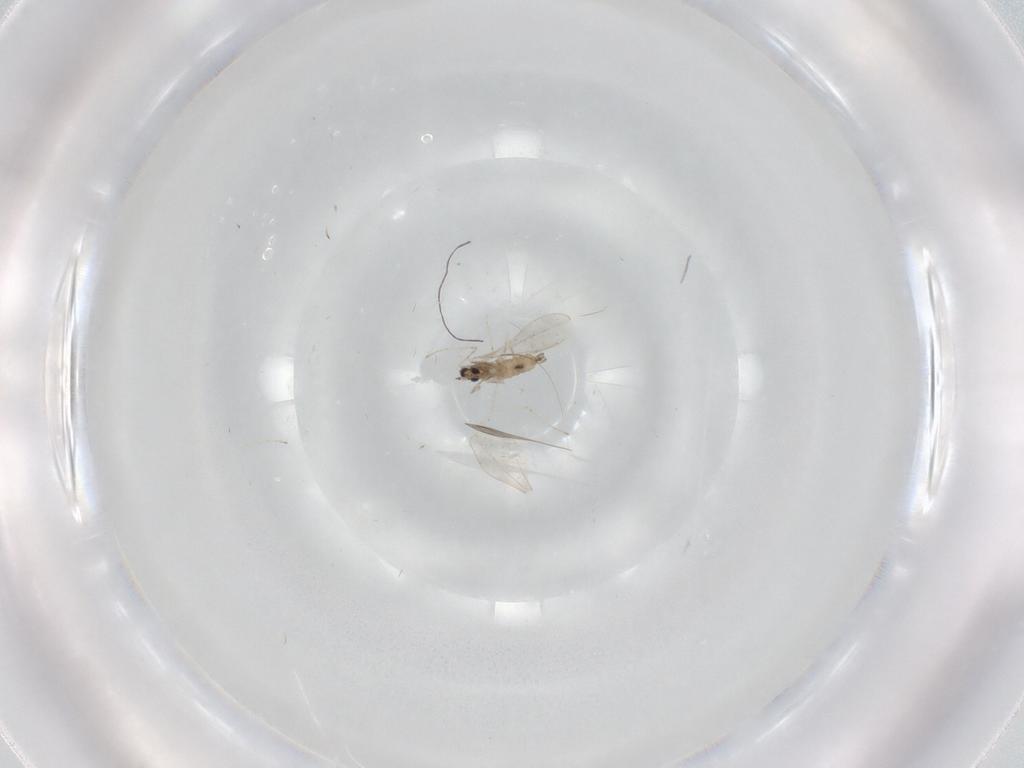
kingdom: Animalia
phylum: Arthropoda
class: Insecta
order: Diptera
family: Cecidomyiidae
